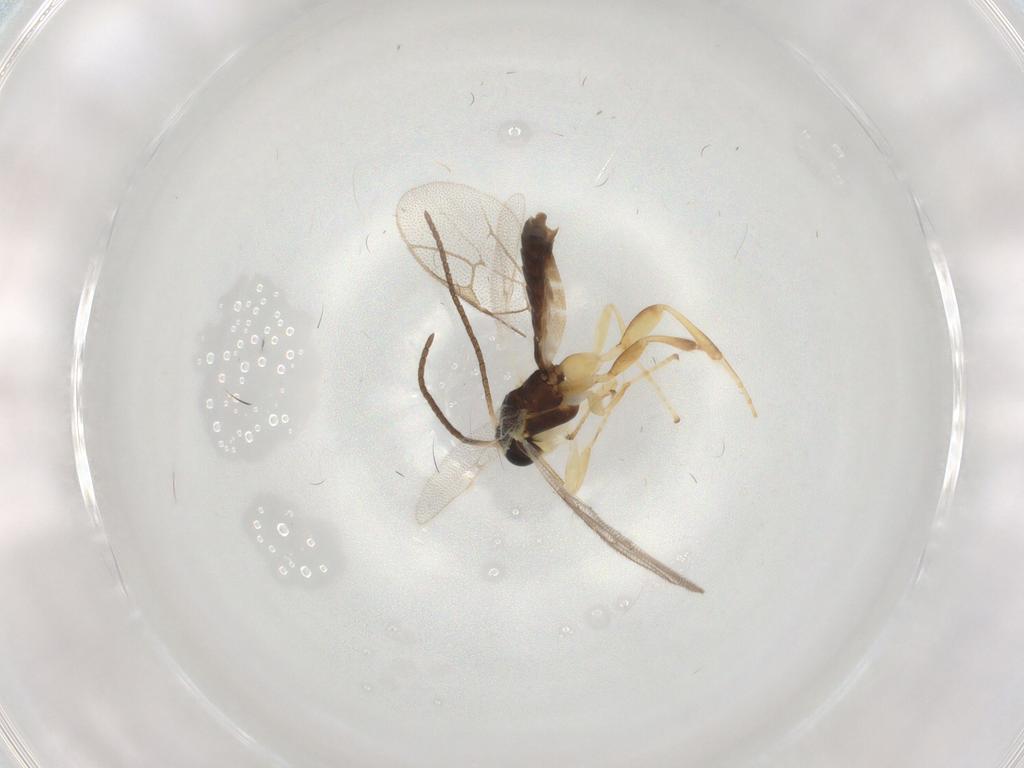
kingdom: Animalia
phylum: Arthropoda
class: Insecta
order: Hymenoptera
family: Ichneumonidae
